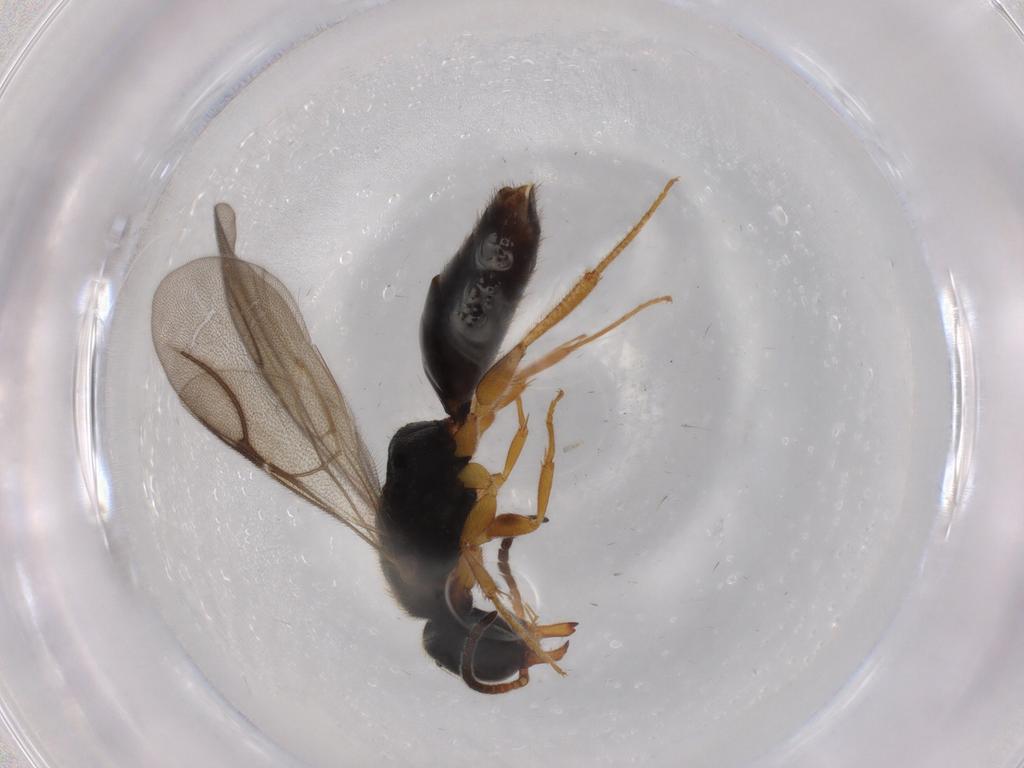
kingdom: Animalia
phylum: Arthropoda
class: Insecta
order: Hymenoptera
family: Bethylidae
